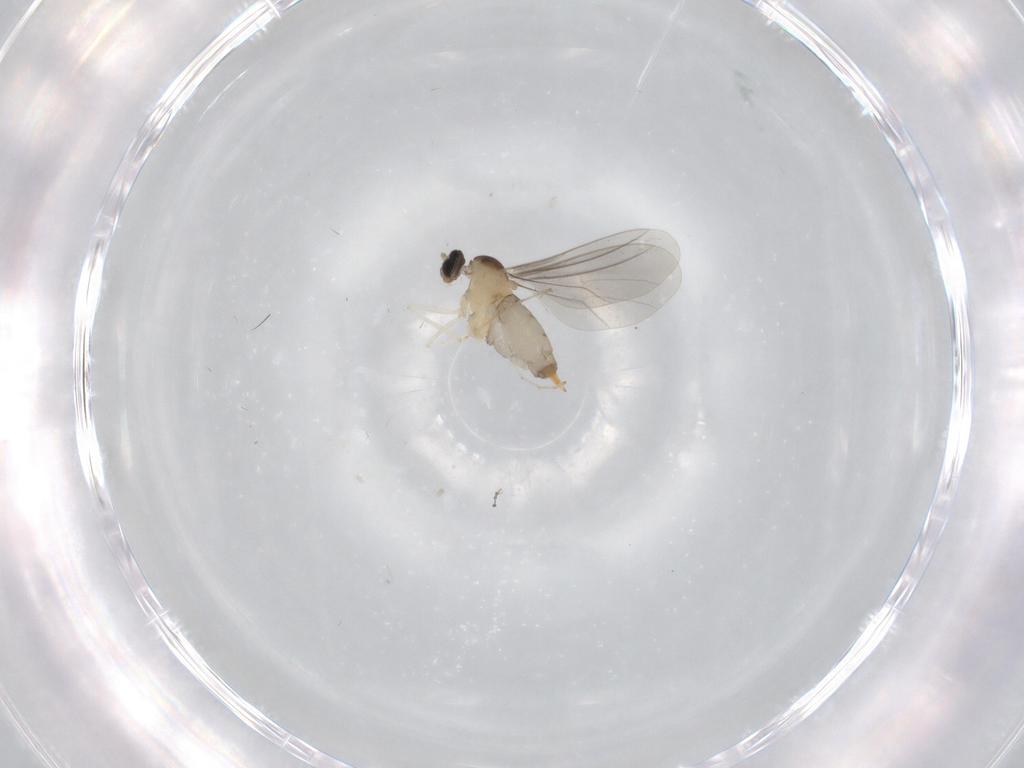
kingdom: Animalia
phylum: Arthropoda
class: Insecta
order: Diptera
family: Cecidomyiidae
